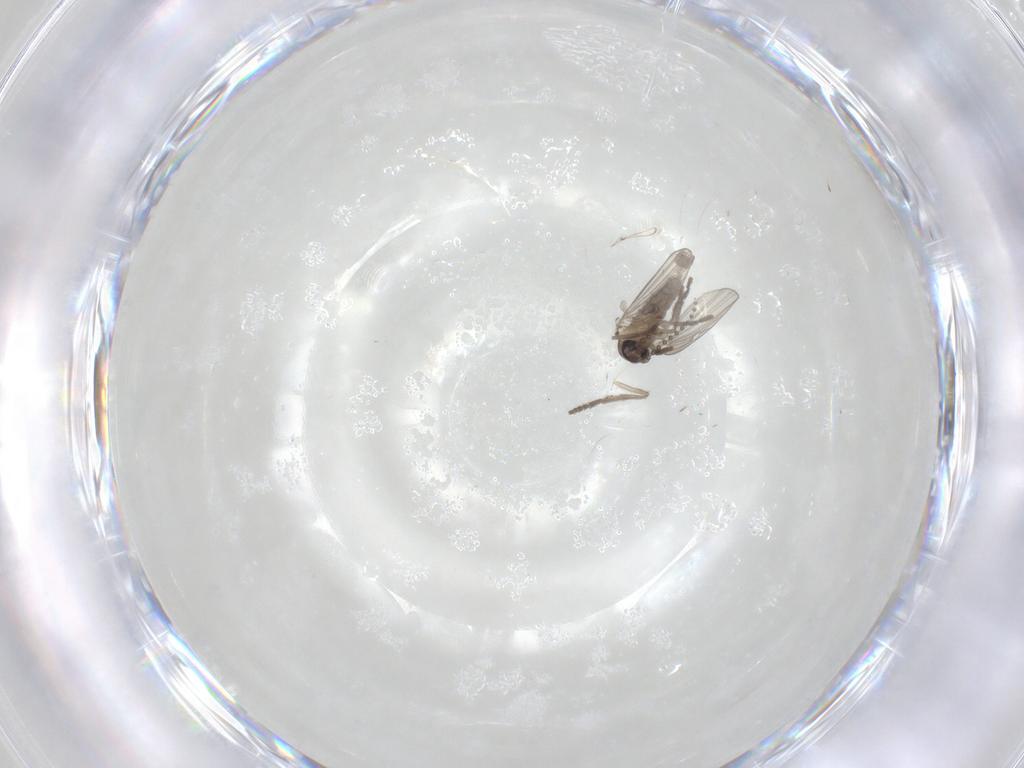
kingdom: Animalia
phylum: Arthropoda
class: Insecta
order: Diptera
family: Psychodidae
